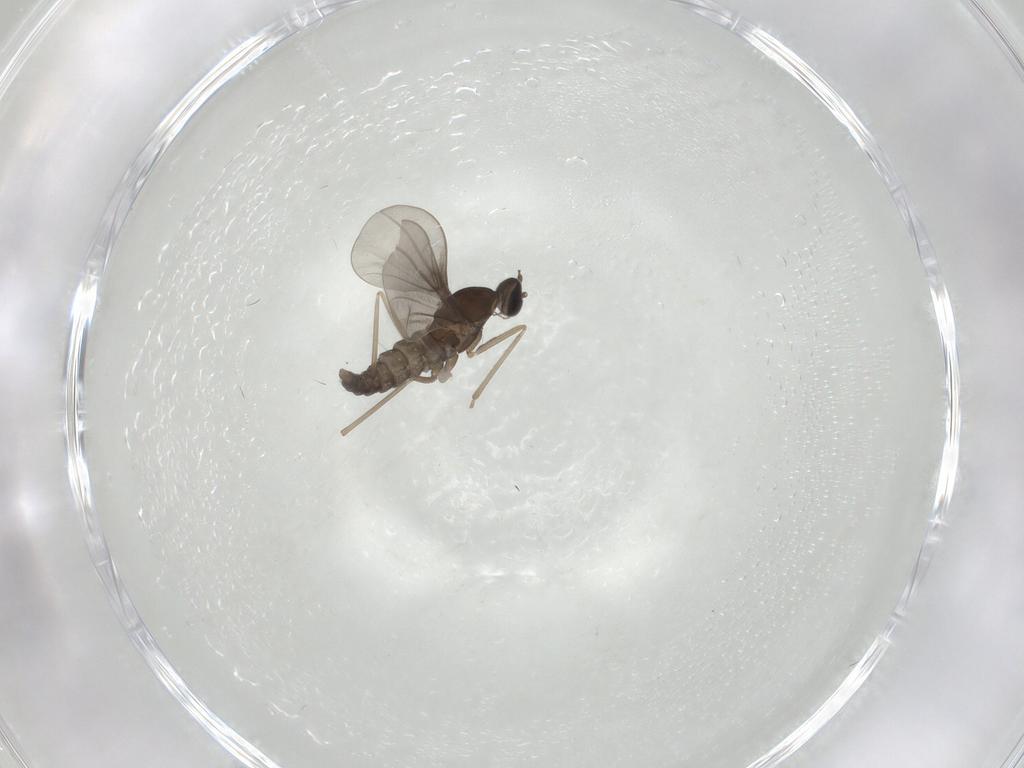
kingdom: Animalia
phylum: Arthropoda
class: Insecta
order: Diptera
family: Cecidomyiidae
